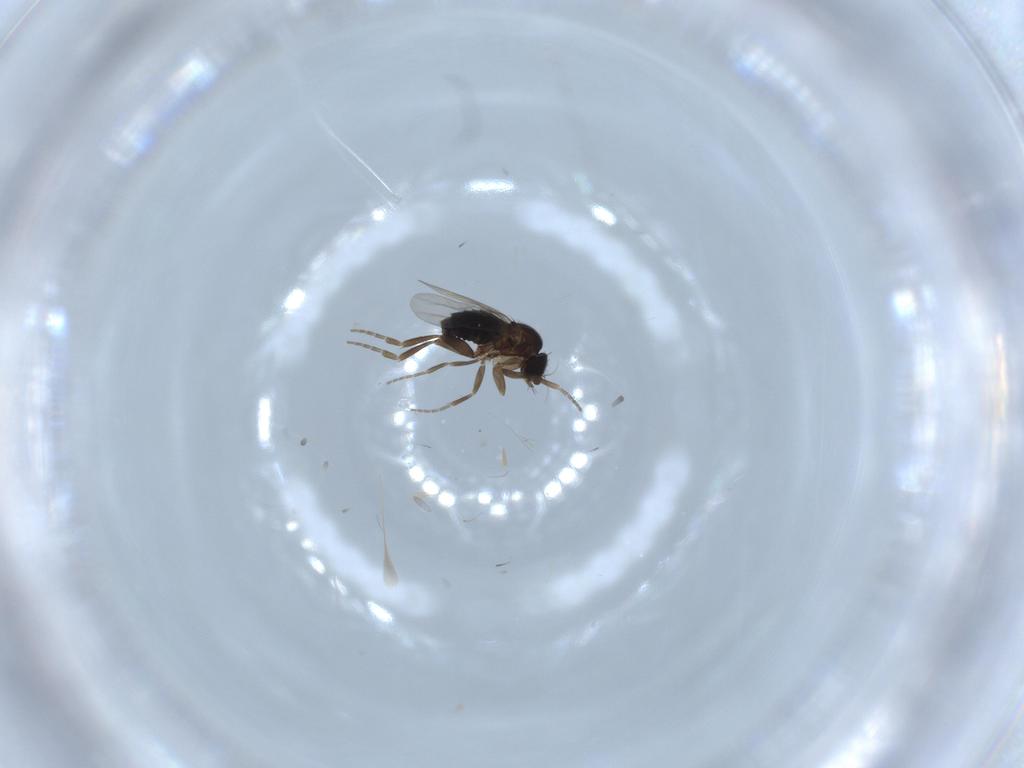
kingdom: Animalia
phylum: Arthropoda
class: Insecta
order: Diptera
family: Phoridae
